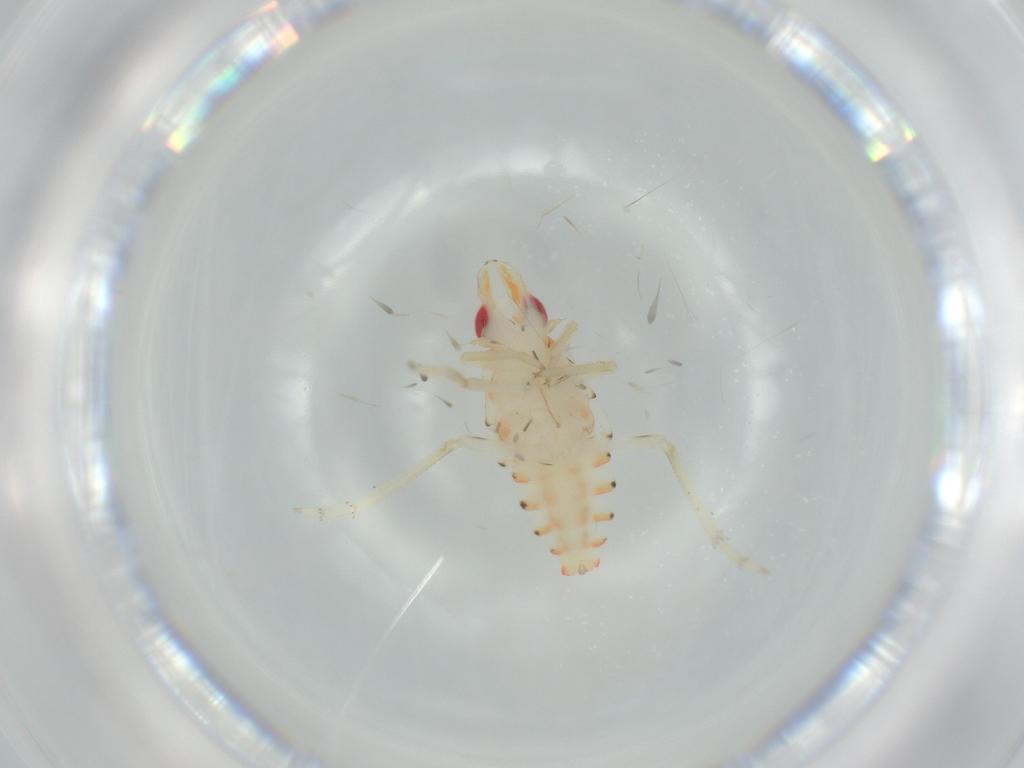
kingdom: Animalia
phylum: Arthropoda
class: Insecta
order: Hemiptera
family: Tropiduchidae
